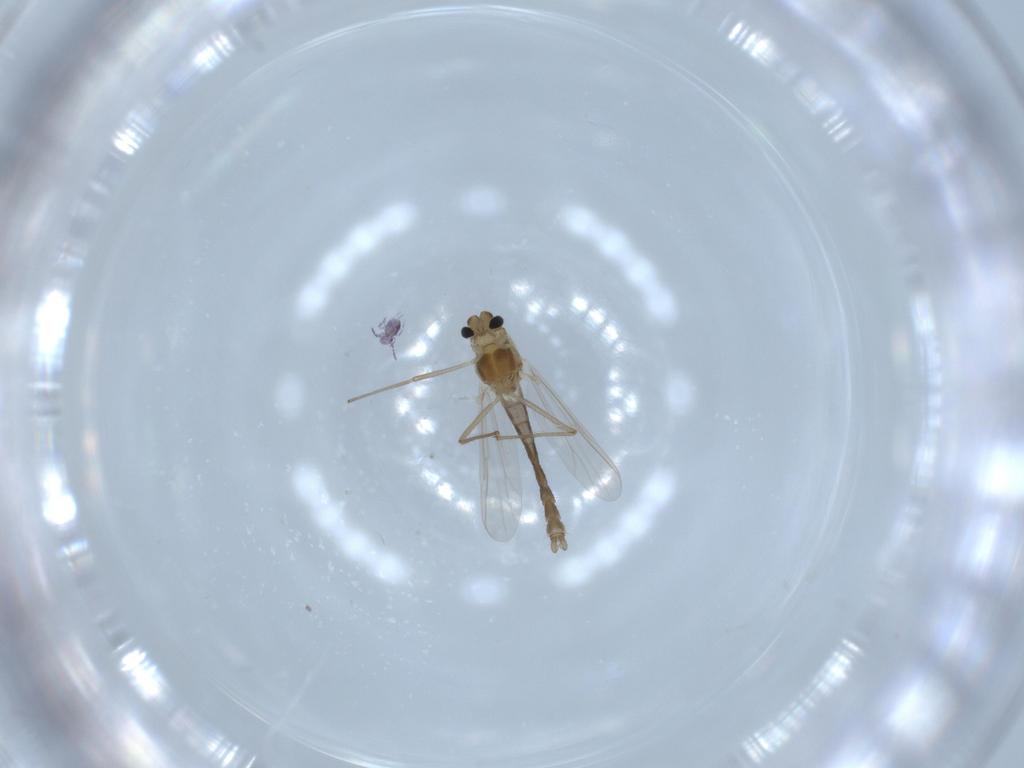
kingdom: Animalia
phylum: Arthropoda
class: Insecta
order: Diptera
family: Chironomidae
